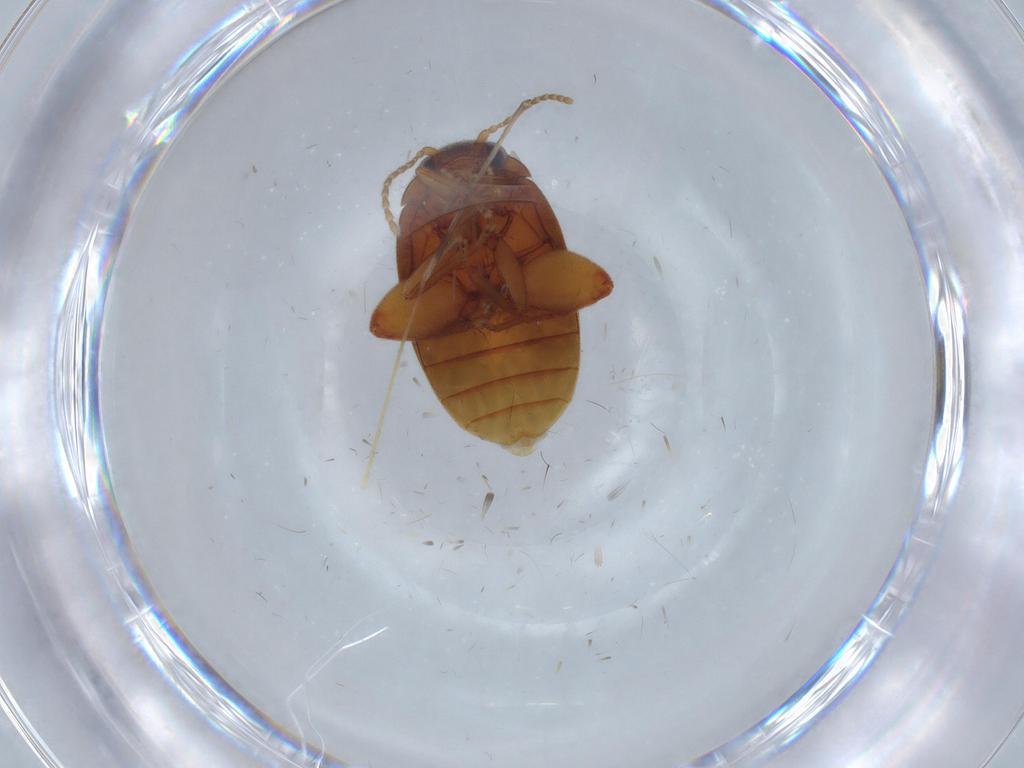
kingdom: Animalia
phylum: Arthropoda
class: Insecta
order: Coleoptera
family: Scirtidae
